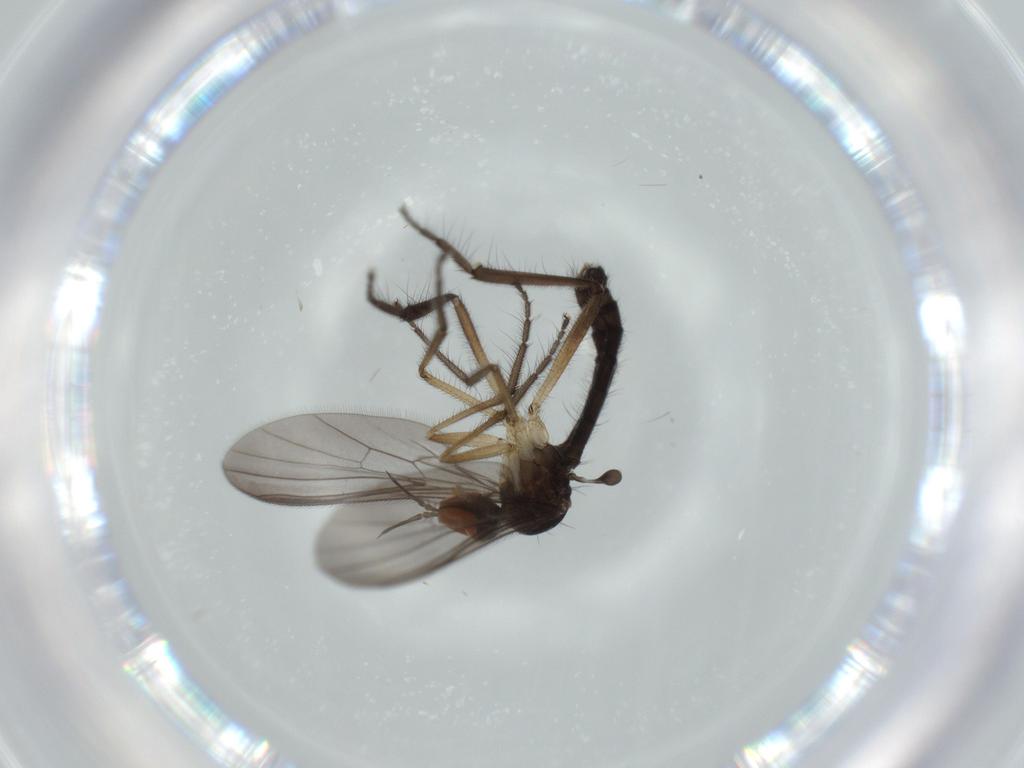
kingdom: Animalia
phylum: Arthropoda
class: Insecta
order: Diptera
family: Empididae
